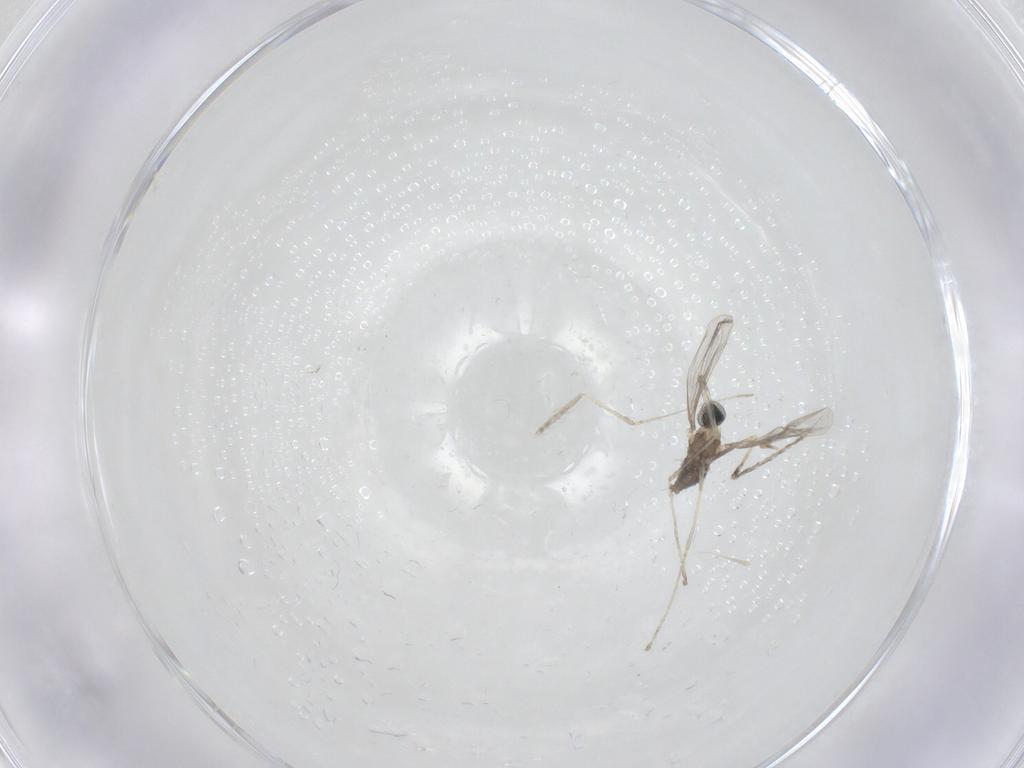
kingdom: Animalia
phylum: Arthropoda
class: Insecta
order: Diptera
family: Cecidomyiidae
